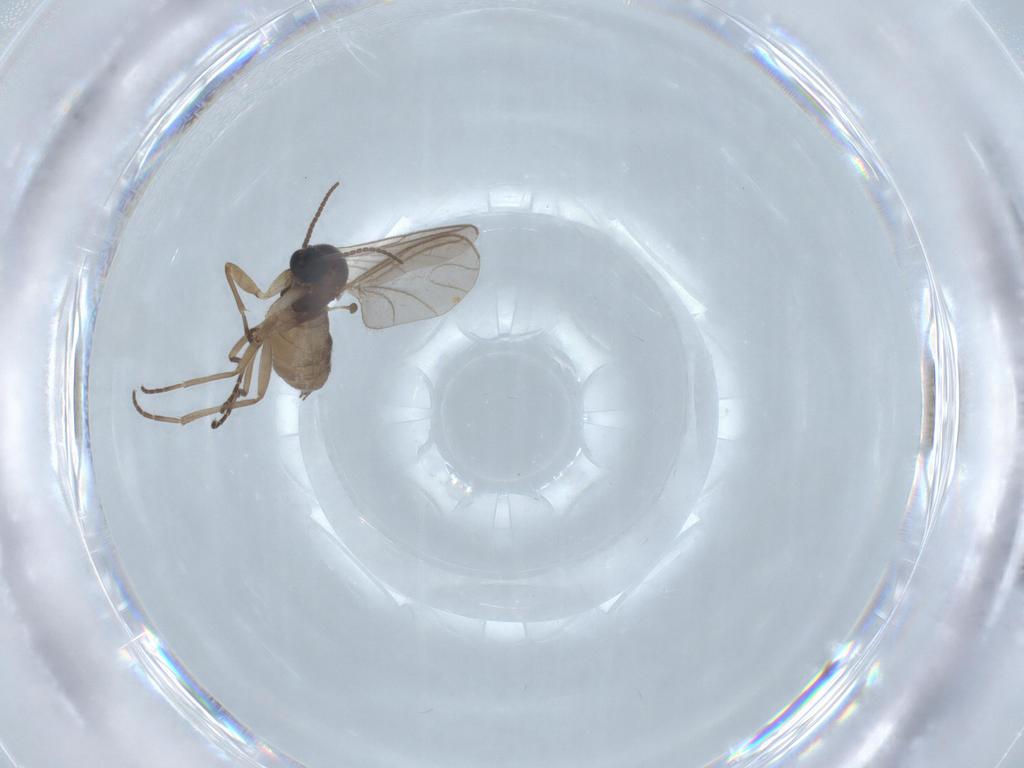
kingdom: Animalia
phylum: Arthropoda
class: Insecta
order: Diptera
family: Sciaridae
